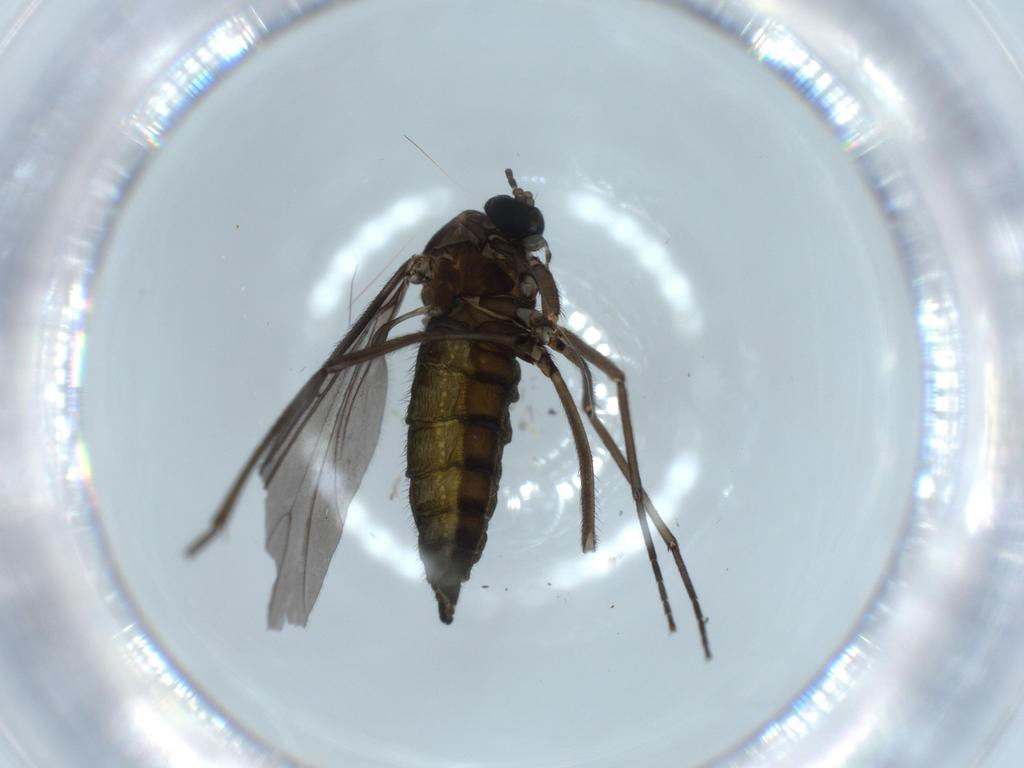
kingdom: Animalia
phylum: Arthropoda
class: Insecta
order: Diptera
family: Sciaridae
